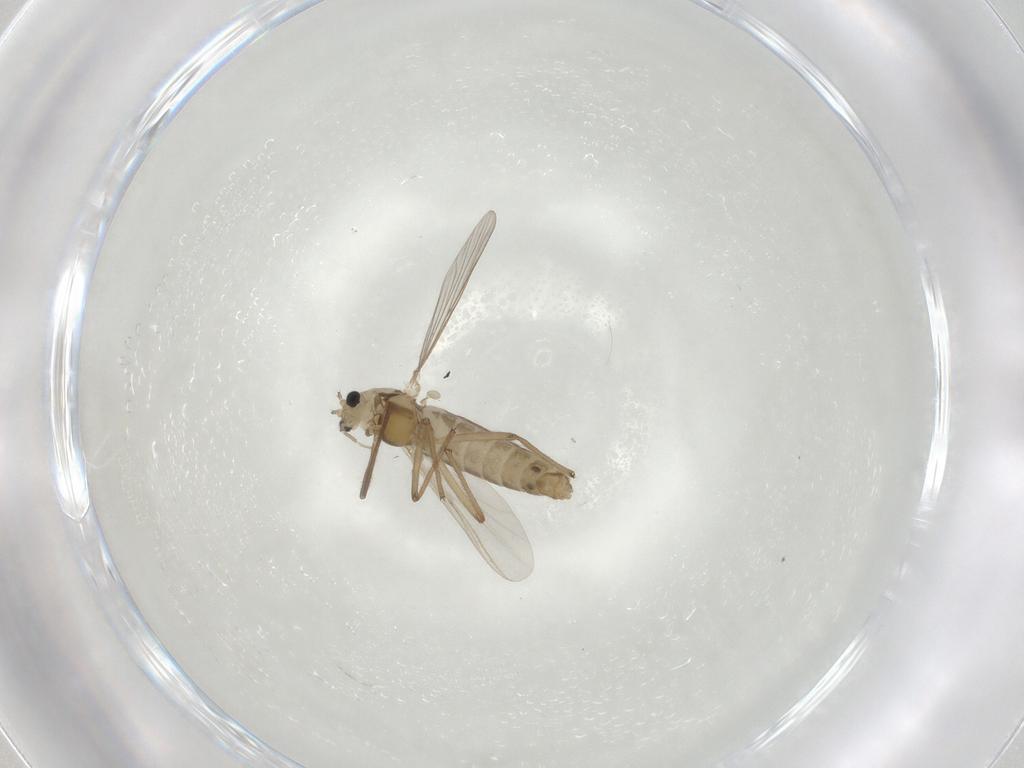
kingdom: Animalia
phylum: Arthropoda
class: Insecta
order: Diptera
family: Chironomidae
